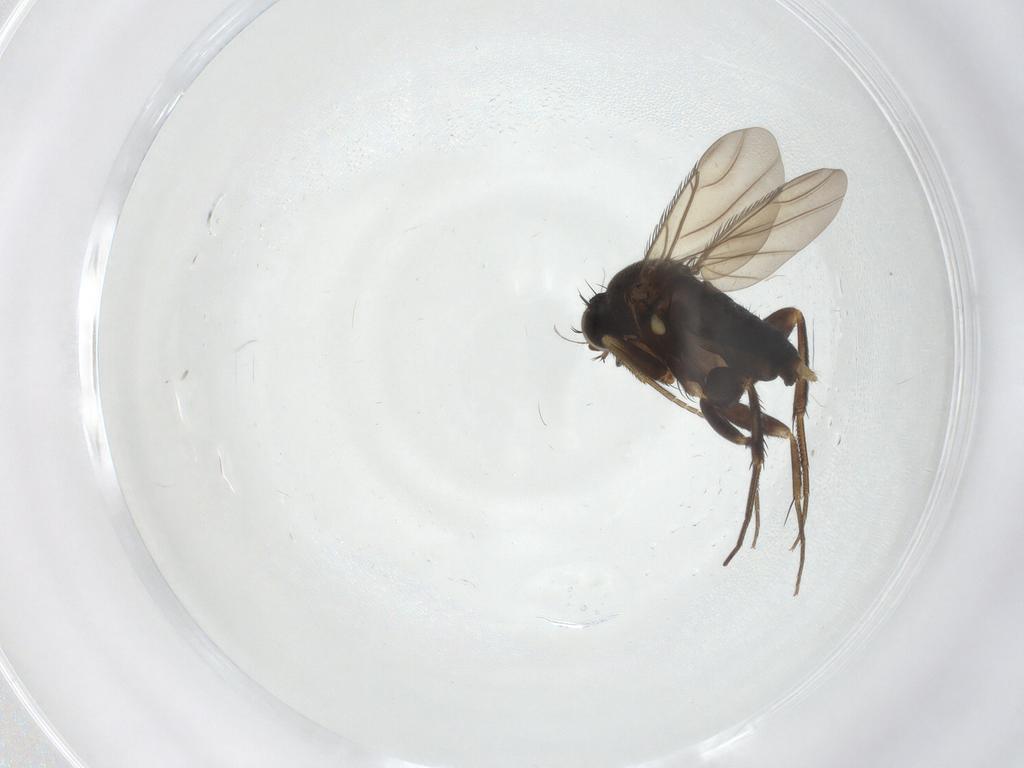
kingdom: Animalia
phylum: Arthropoda
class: Insecta
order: Diptera
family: Phoridae
